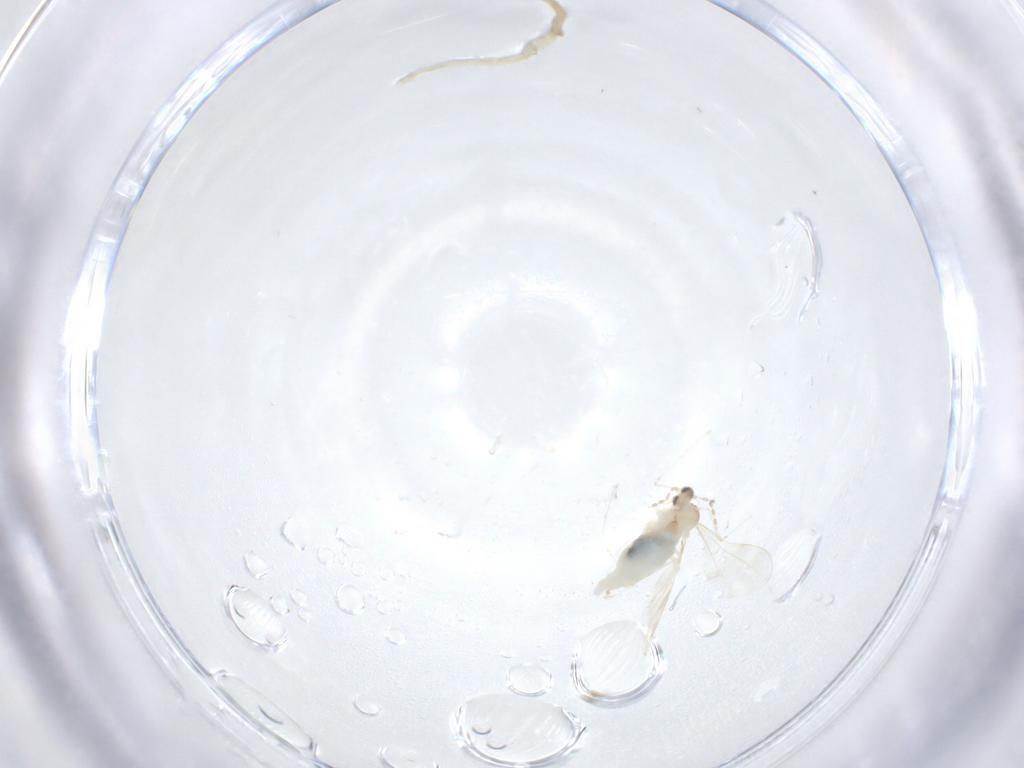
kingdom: Animalia
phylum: Arthropoda
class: Insecta
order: Diptera
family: Cecidomyiidae
